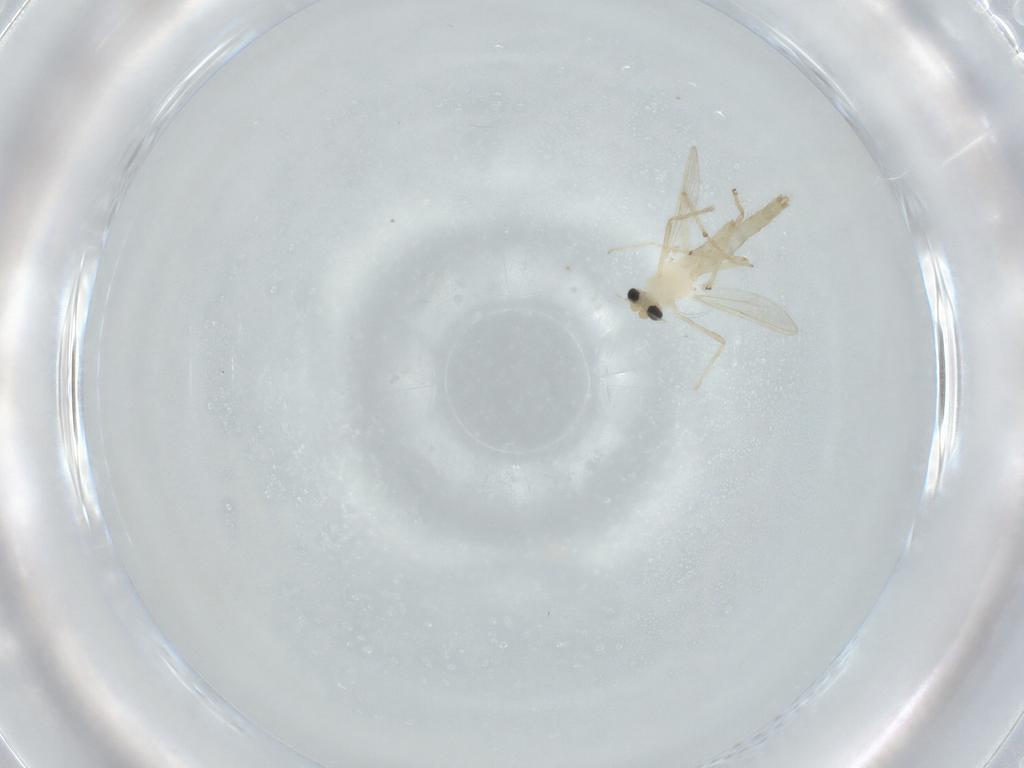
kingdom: Animalia
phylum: Arthropoda
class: Insecta
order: Diptera
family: Chironomidae
